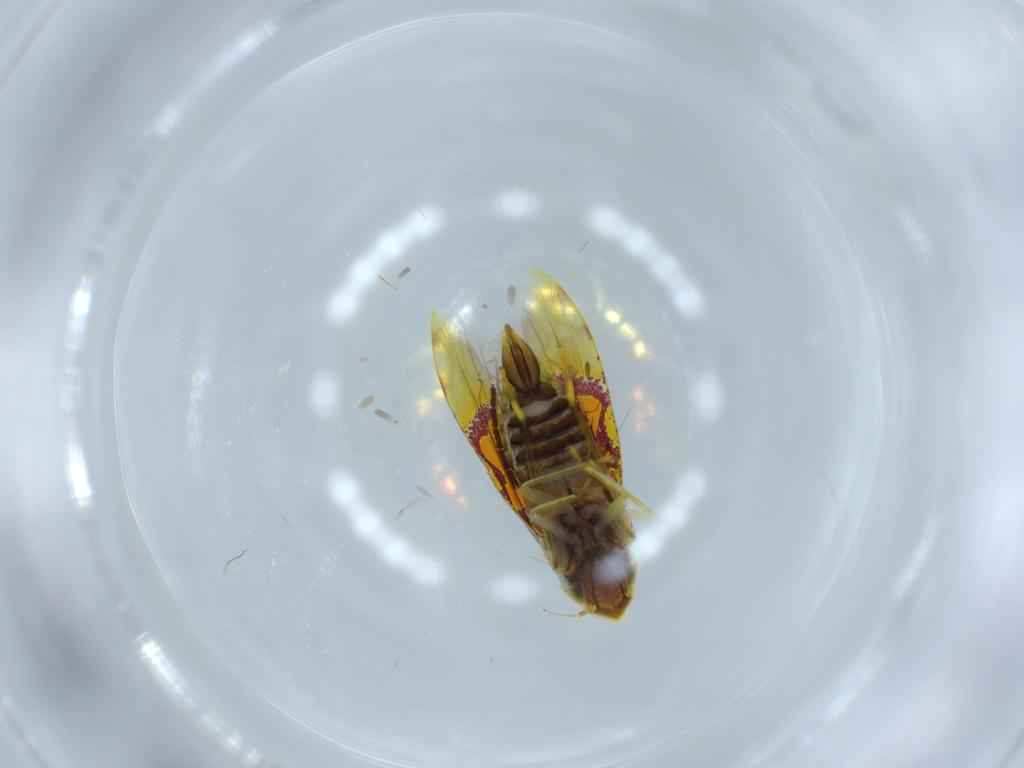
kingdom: Animalia
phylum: Arthropoda
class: Insecta
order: Hemiptera
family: Cicadellidae
